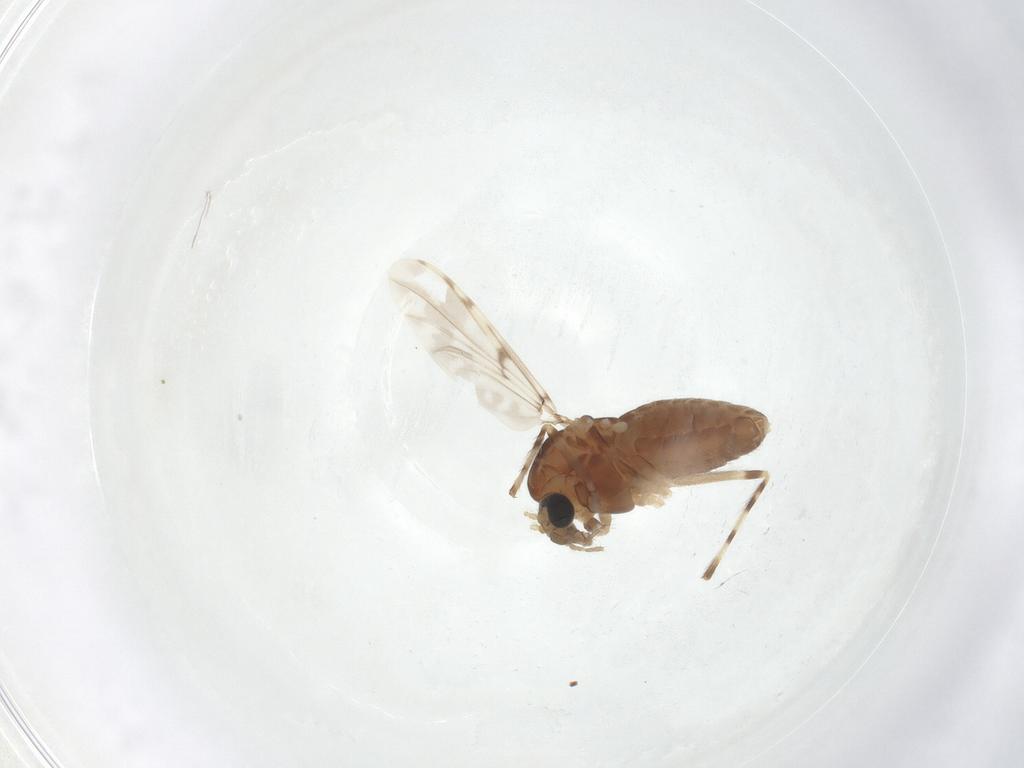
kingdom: Animalia
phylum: Arthropoda
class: Insecta
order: Diptera
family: Chironomidae
